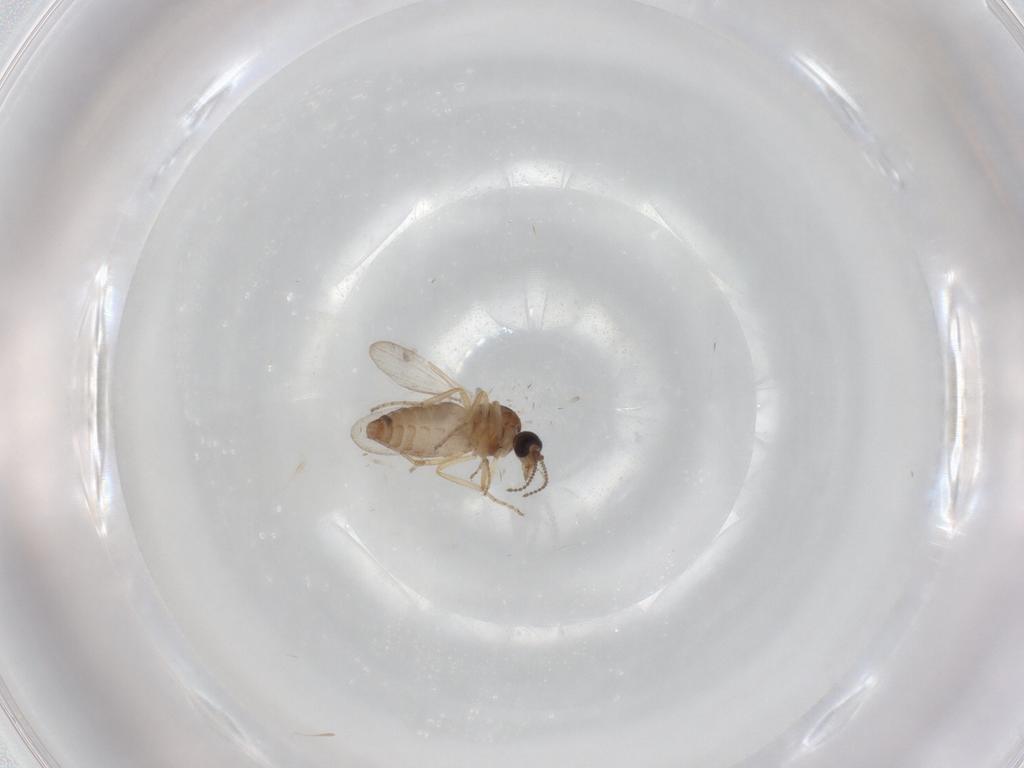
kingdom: Animalia
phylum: Arthropoda
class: Insecta
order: Diptera
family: Ceratopogonidae
